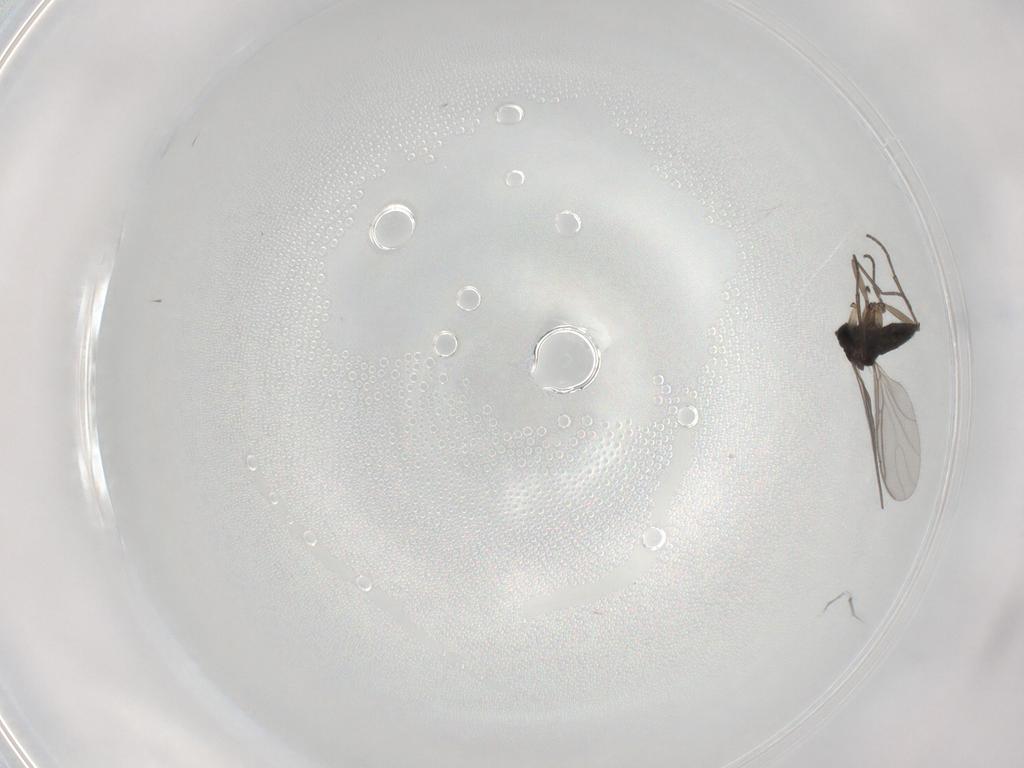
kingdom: Animalia
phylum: Arthropoda
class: Insecta
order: Diptera
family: Sciaridae
